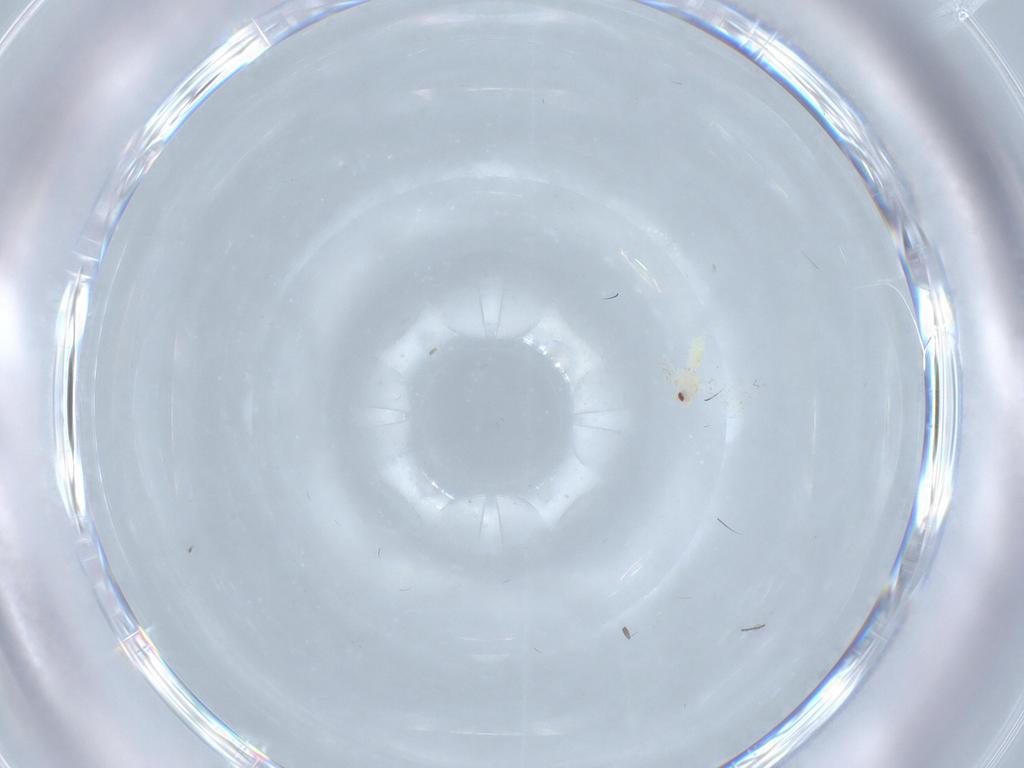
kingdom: Animalia
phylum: Arthropoda
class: Insecta
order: Hemiptera
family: Aleyrodidae
